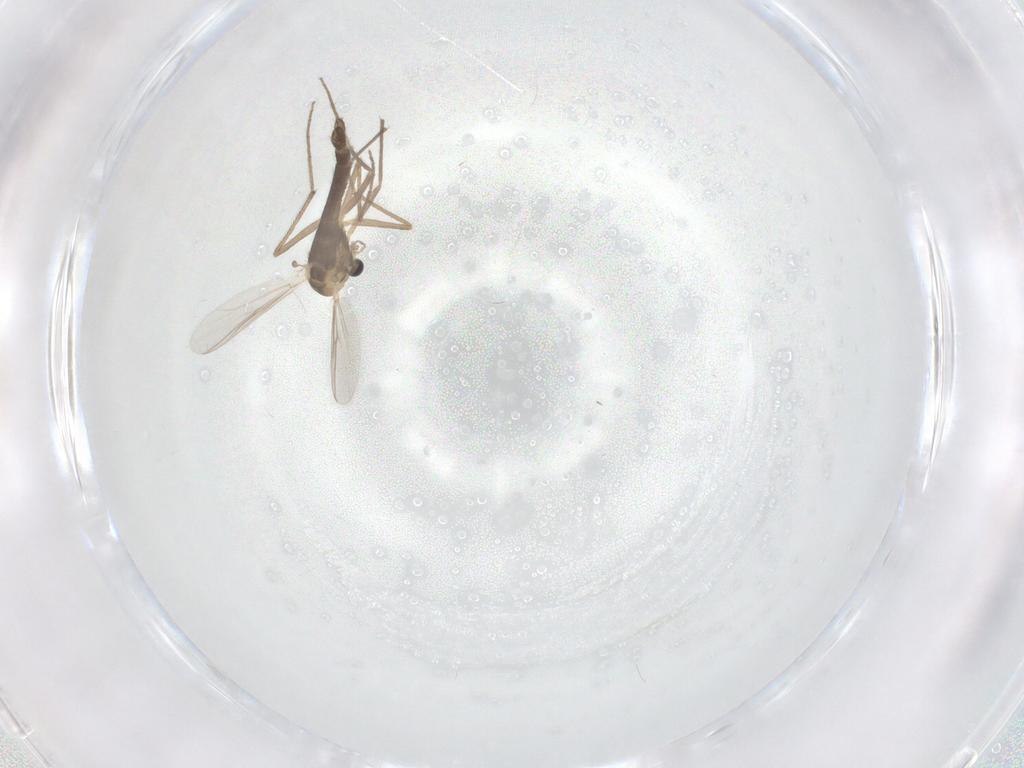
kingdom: Animalia
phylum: Arthropoda
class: Insecta
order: Diptera
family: Chironomidae
